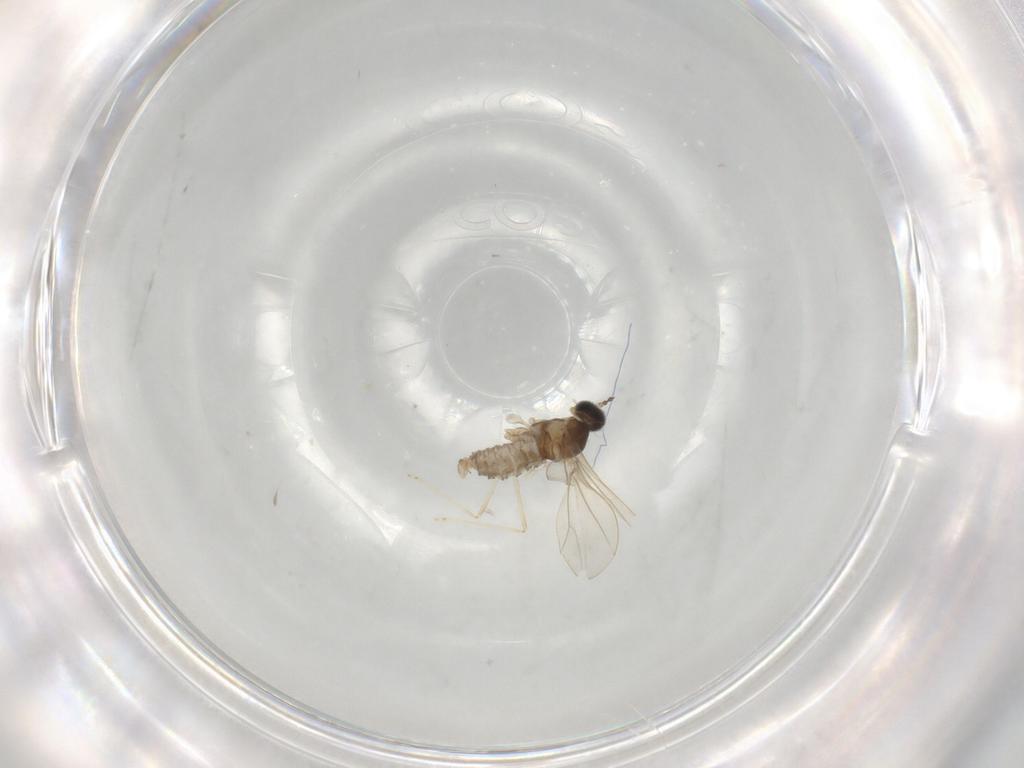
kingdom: Animalia
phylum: Arthropoda
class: Insecta
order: Diptera
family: Cecidomyiidae
